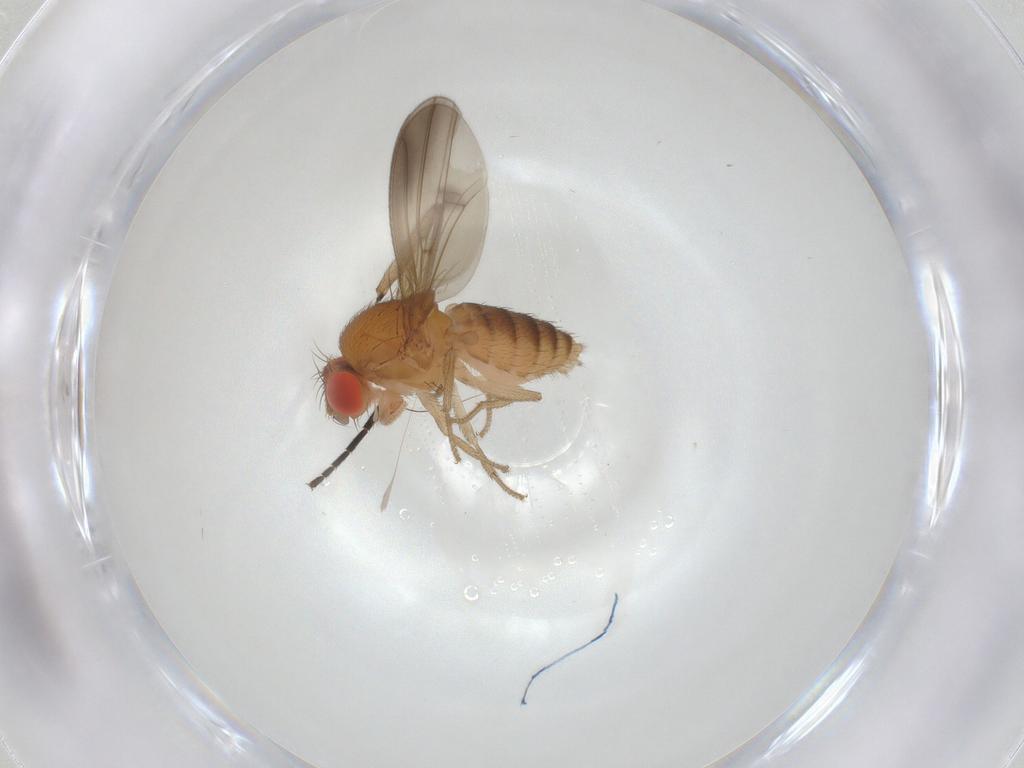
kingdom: Animalia
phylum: Arthropoda
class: Insecta
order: Diptera
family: Drosophilidae
